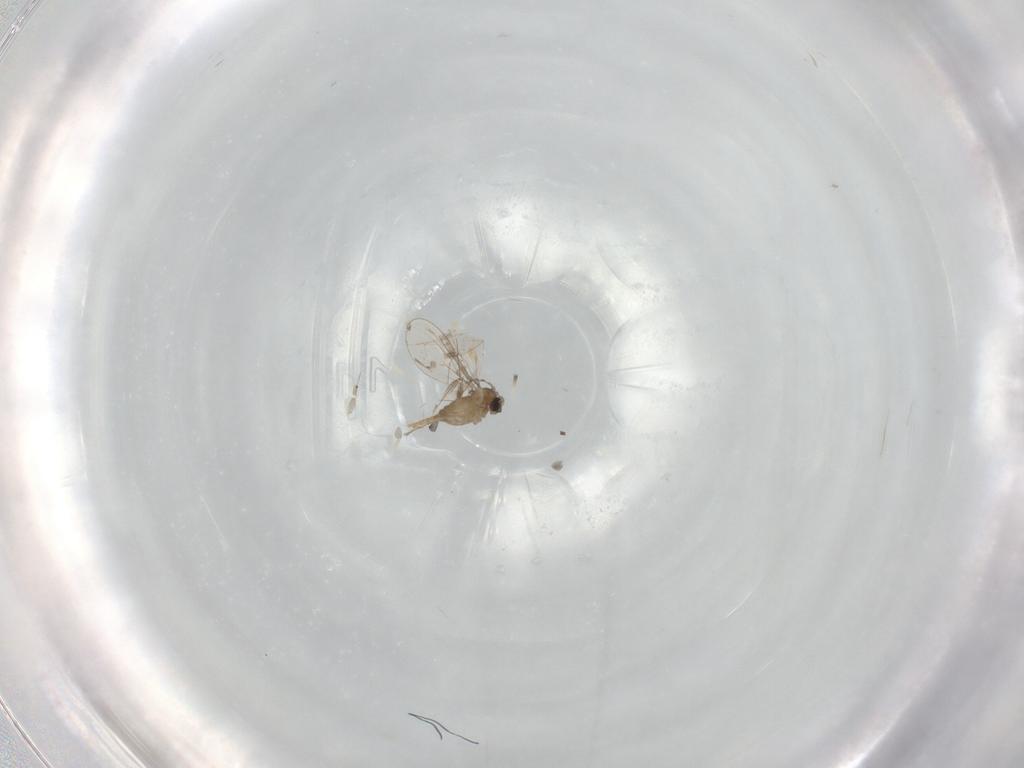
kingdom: Animalia
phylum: Arthropoda
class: Insecta
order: Diptera
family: Cecidomyiidae
